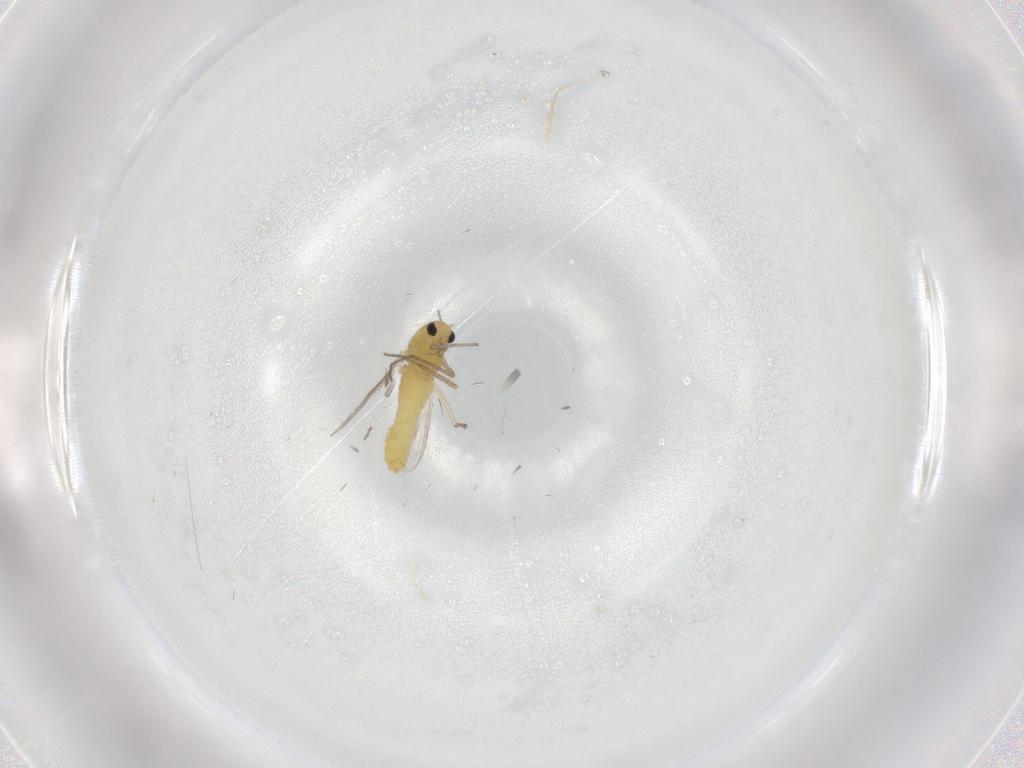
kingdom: Animalia
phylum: Arthropoda
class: Insecta
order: Diptera
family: Chironomidae
